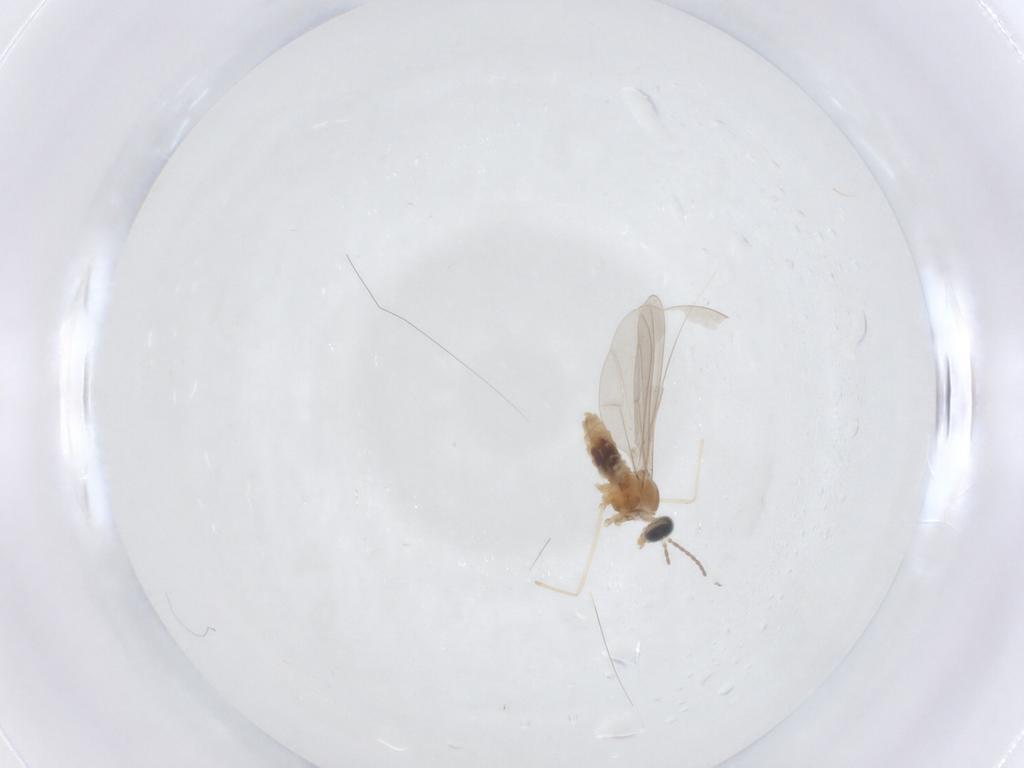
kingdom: Animalia
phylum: Arthropoda
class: Insecta
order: Diptera
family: Cecidomyiidae
